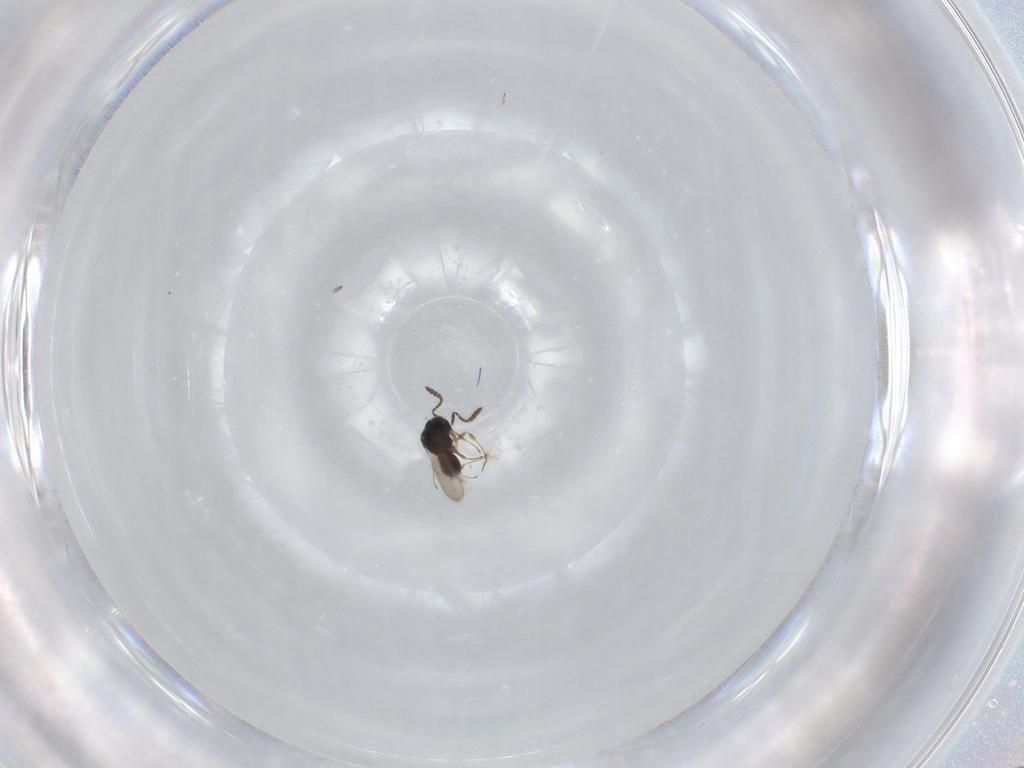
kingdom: Animalia
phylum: Arthropoda
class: Insecta
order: Hymenoptera
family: Scelionidae
